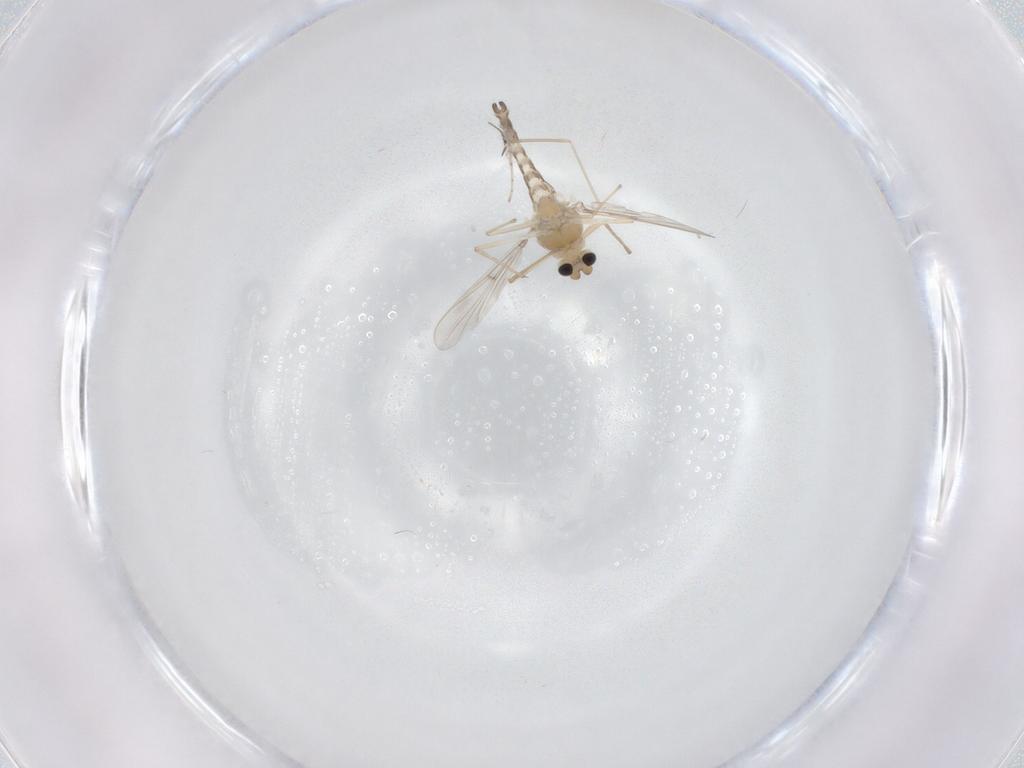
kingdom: Animalia
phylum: Arthropoda
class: Insecta
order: Diptera
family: Chironomidae
